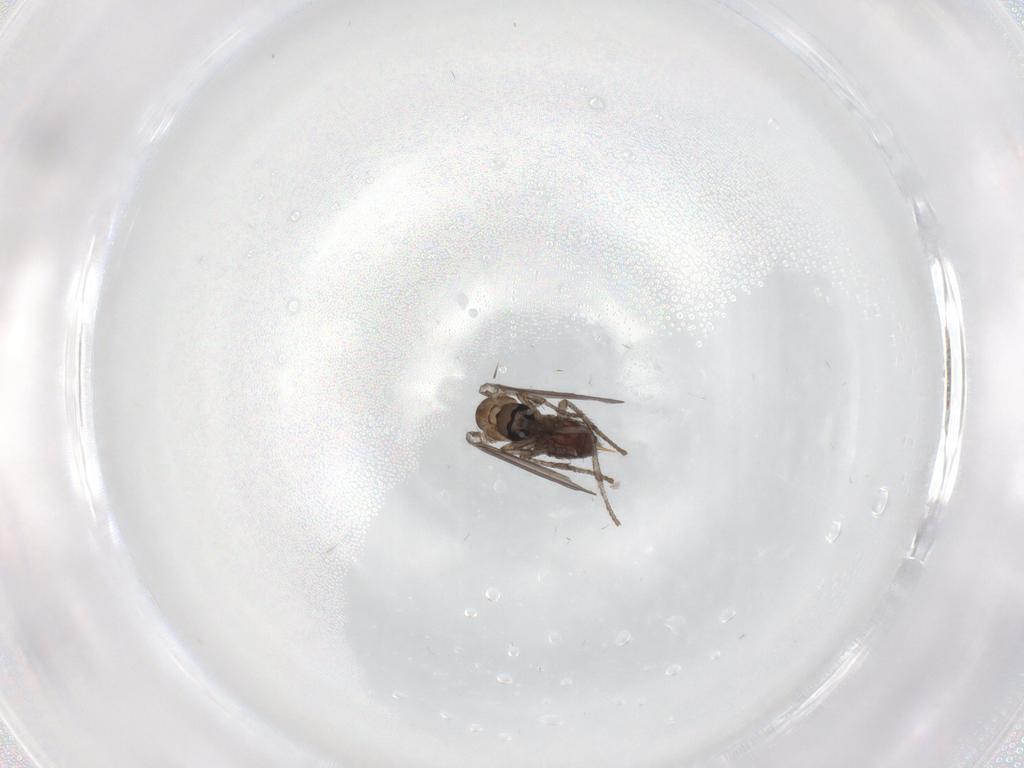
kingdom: Animalia
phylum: Arthropoda
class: Insecta
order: Diptera
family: Psychodidae
